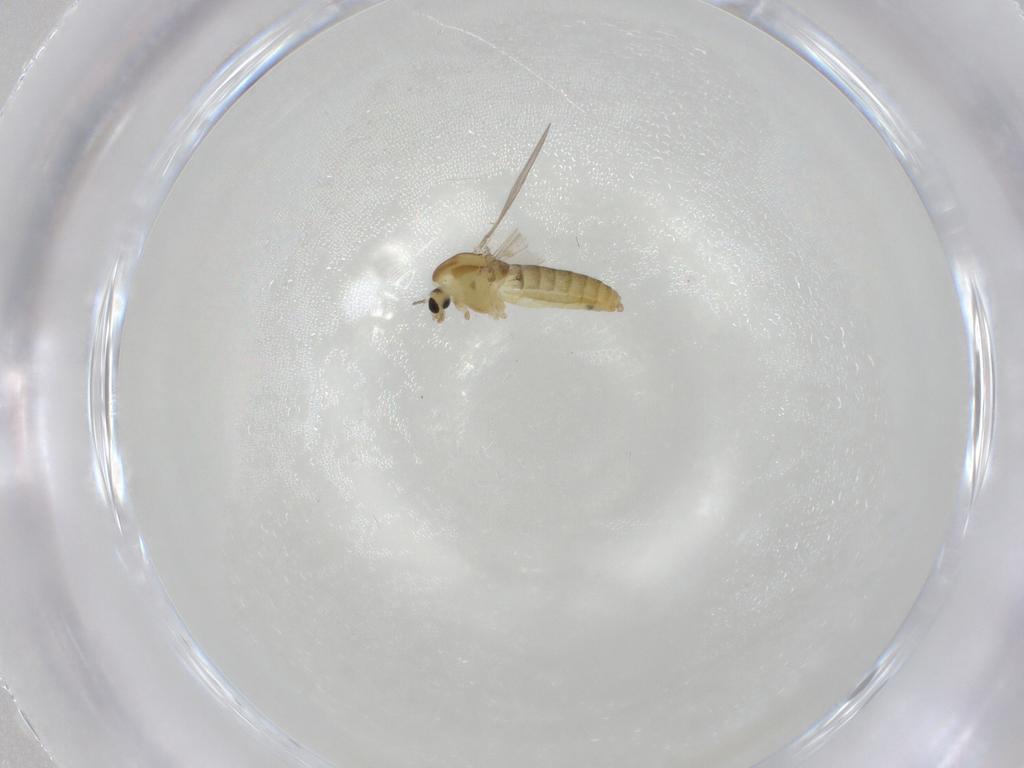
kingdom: Animalia
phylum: Arthropoda
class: Insecta
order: Diptera
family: Chironomidae
